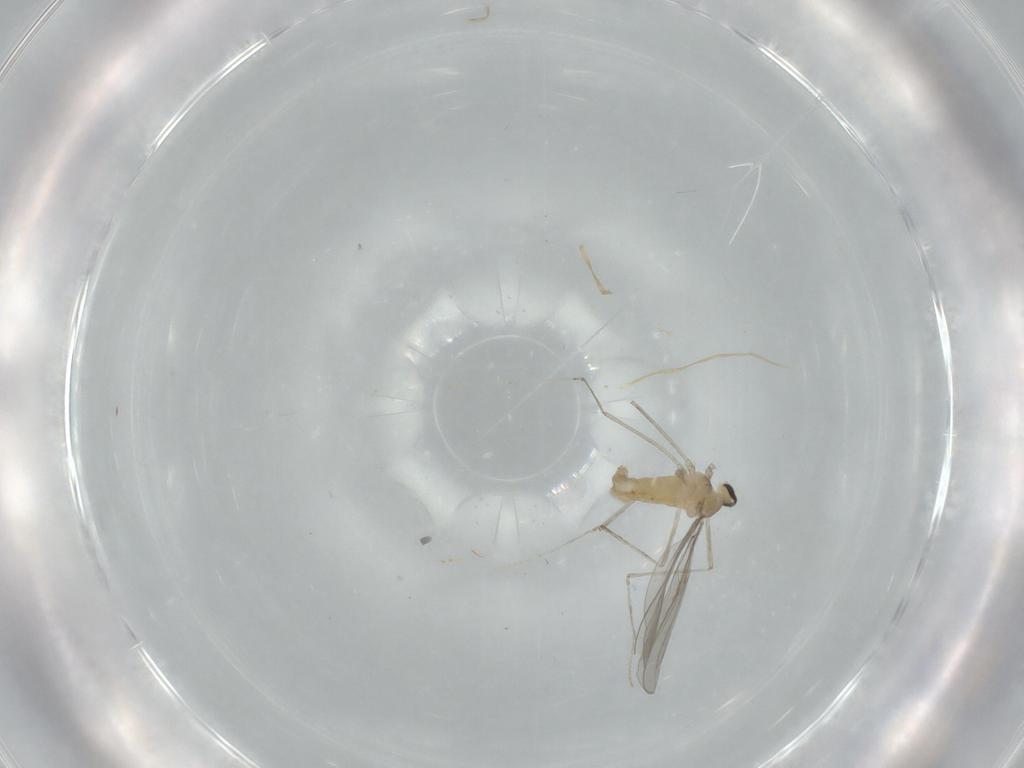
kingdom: Animalia
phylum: Arthropoda
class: Insecta
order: Diptera
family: Cecidomyiidae
